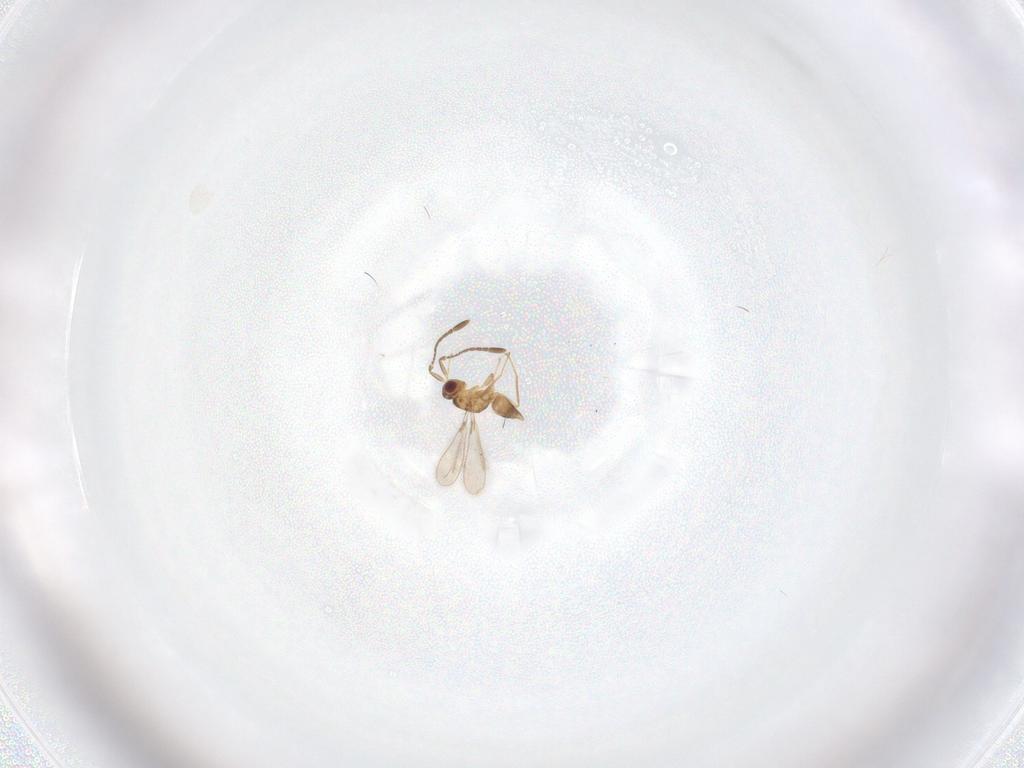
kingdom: Animalia
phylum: Arthropoda
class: Insecta
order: Hymenoptera
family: Mymaridae
